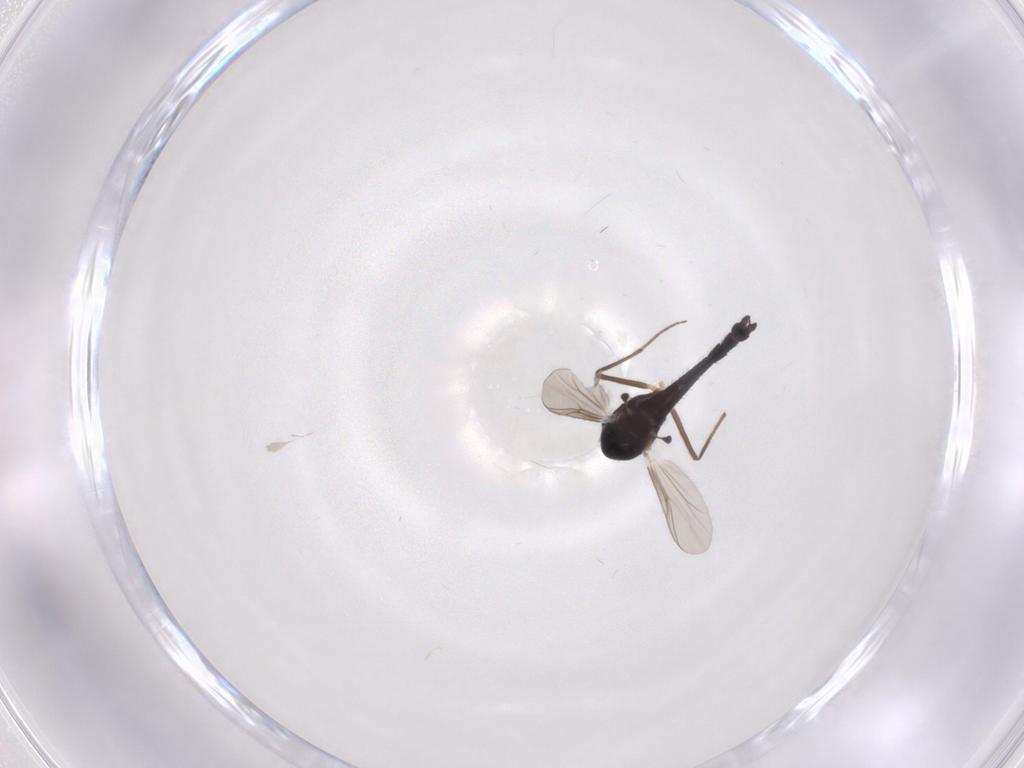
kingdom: Animalia
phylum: Arthropoda
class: Insecta
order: Diptera
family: Chironomidae
